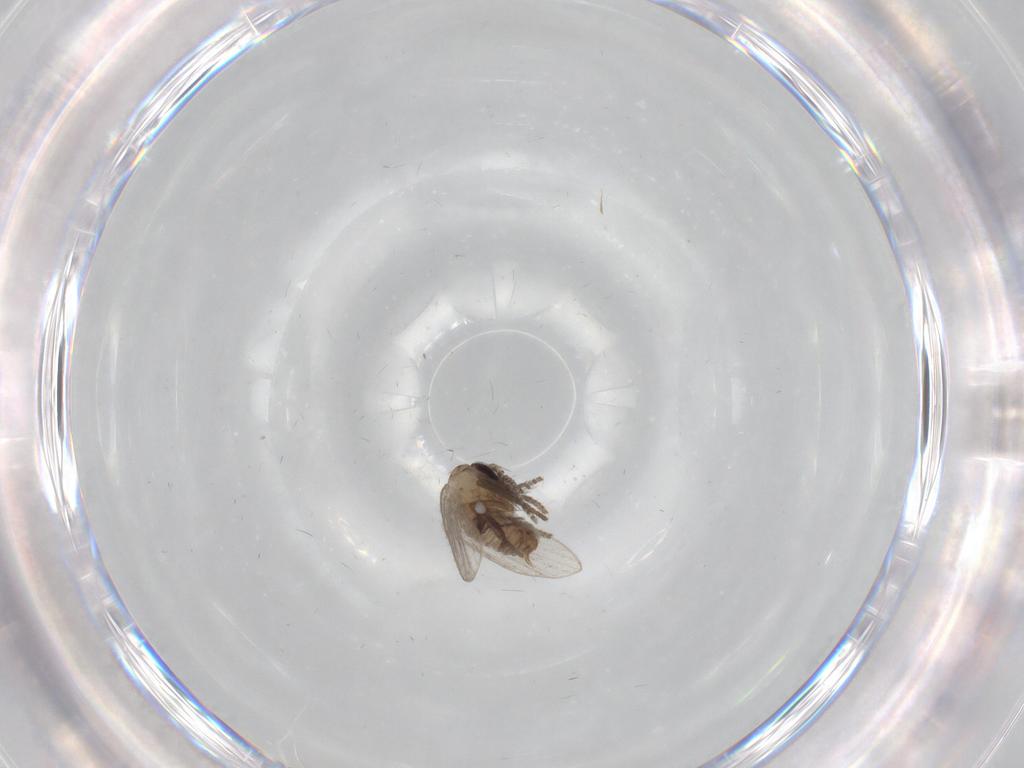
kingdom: Animalia
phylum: Arthropoda
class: Insecta
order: Diptera
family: Psychodidae
